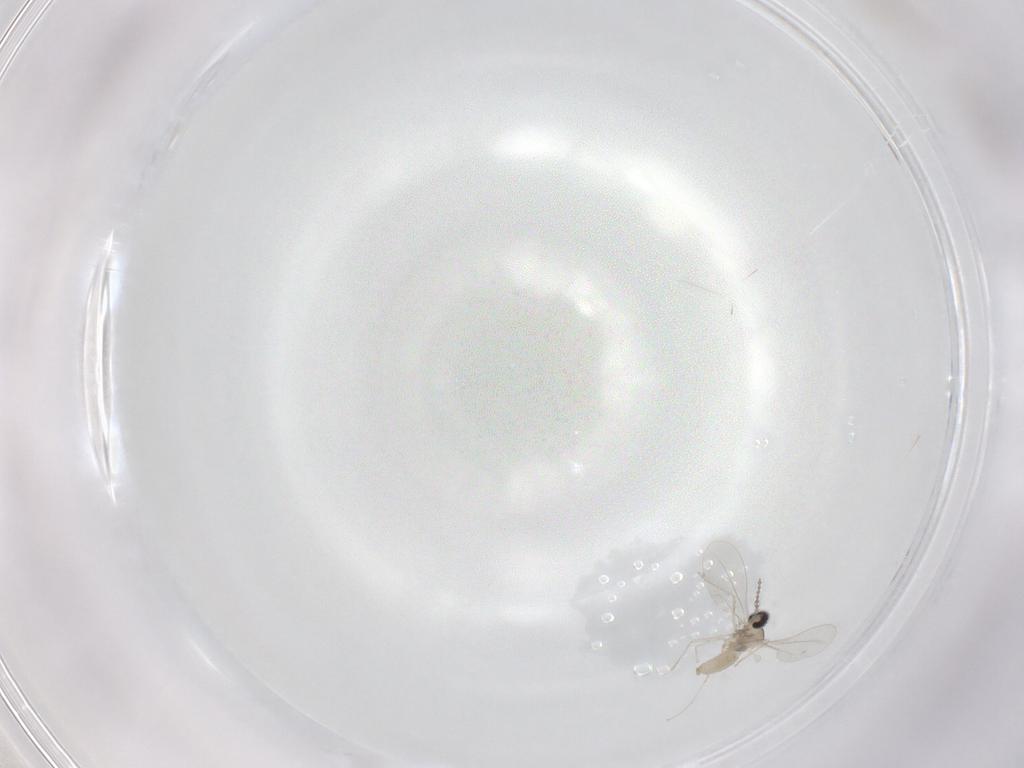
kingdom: Animalia
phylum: Arthropoda
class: Insecta
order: Diptera
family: Cecidomyiidae
